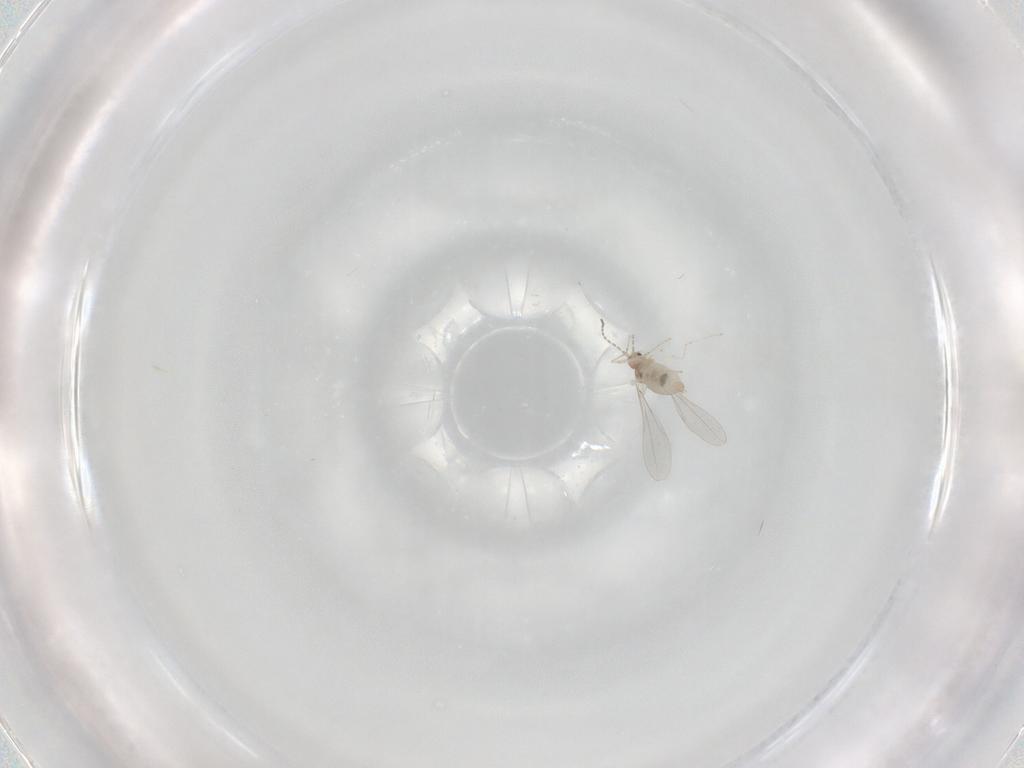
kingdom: Animalia
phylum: Arthropoda
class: Insecta
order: Diptera
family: Cecidomyiidae
